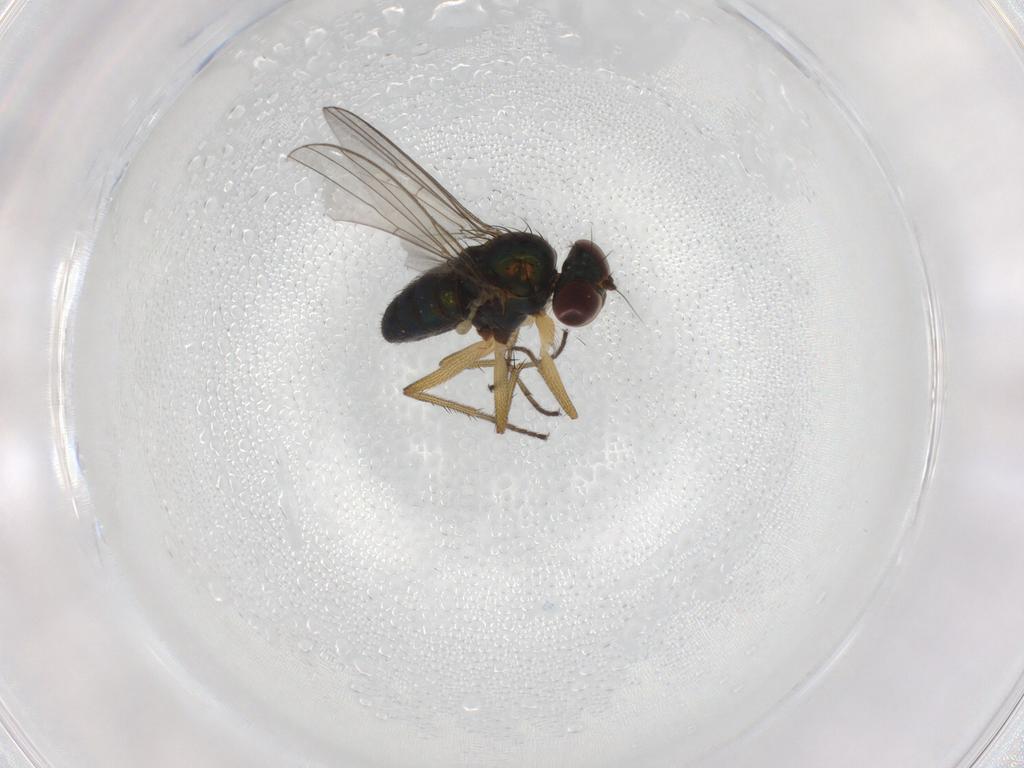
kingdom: Animalia
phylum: Arthropoda
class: Insecta
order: Diptera
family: Dolichopodidae
